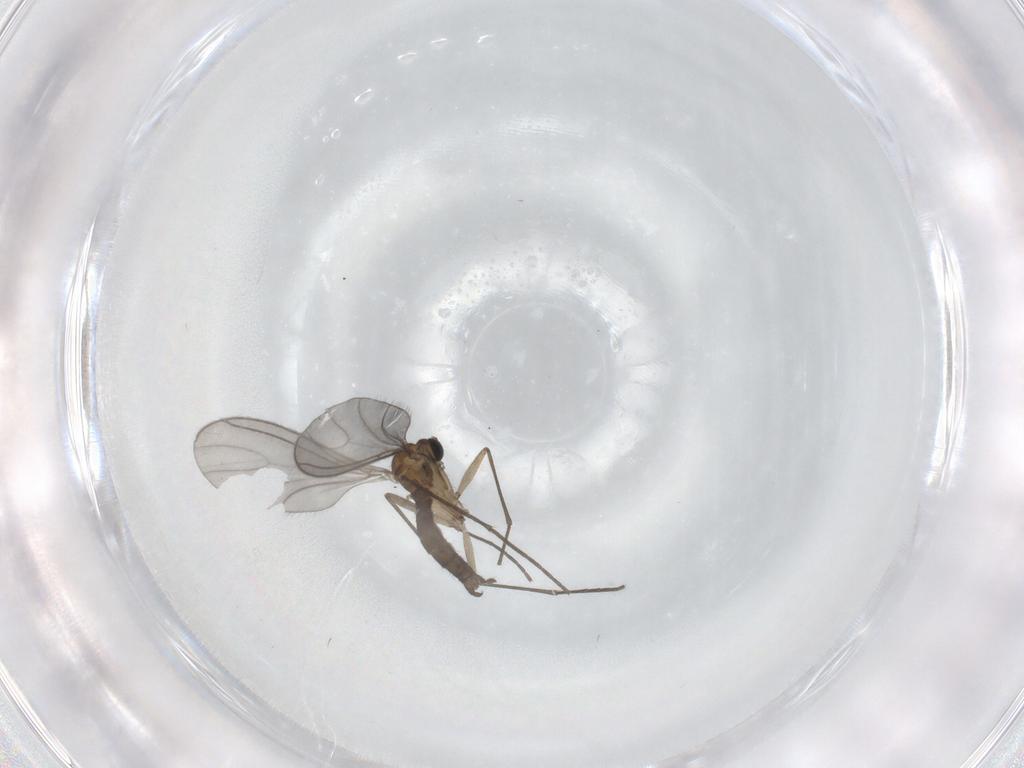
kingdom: Animalia
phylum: Arthropoda
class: Insecta
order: Diptera
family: Sciaridae
